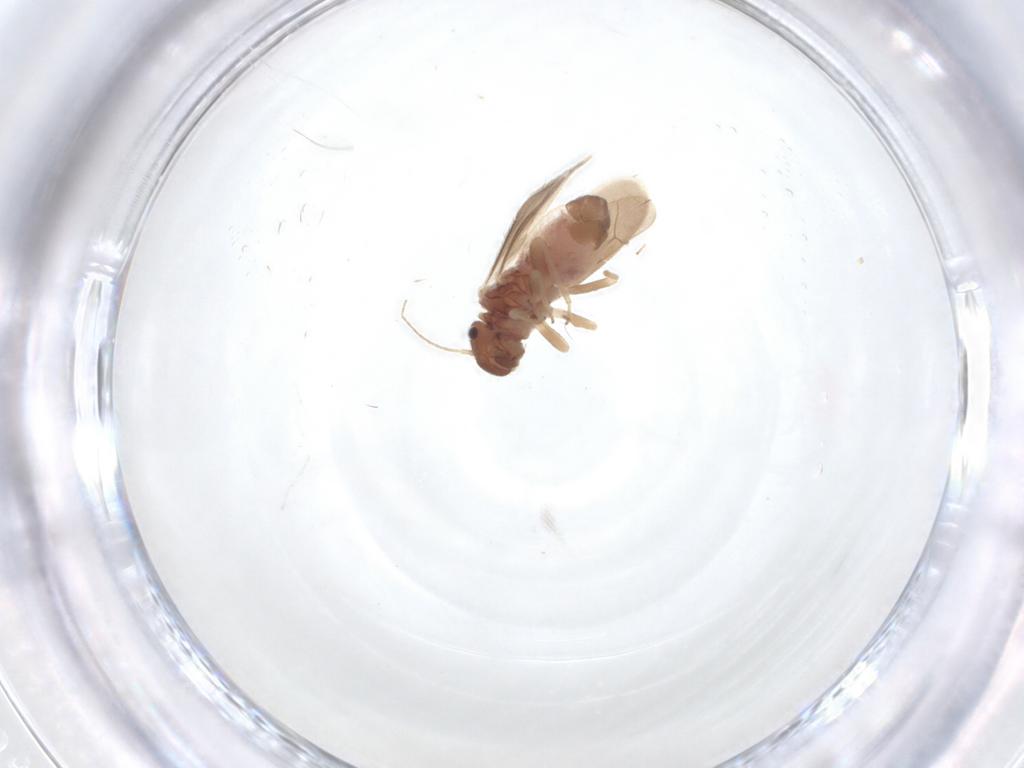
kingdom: Animalia
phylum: Arthropoda
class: Insecta
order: Psocodea
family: Archipsocidae
